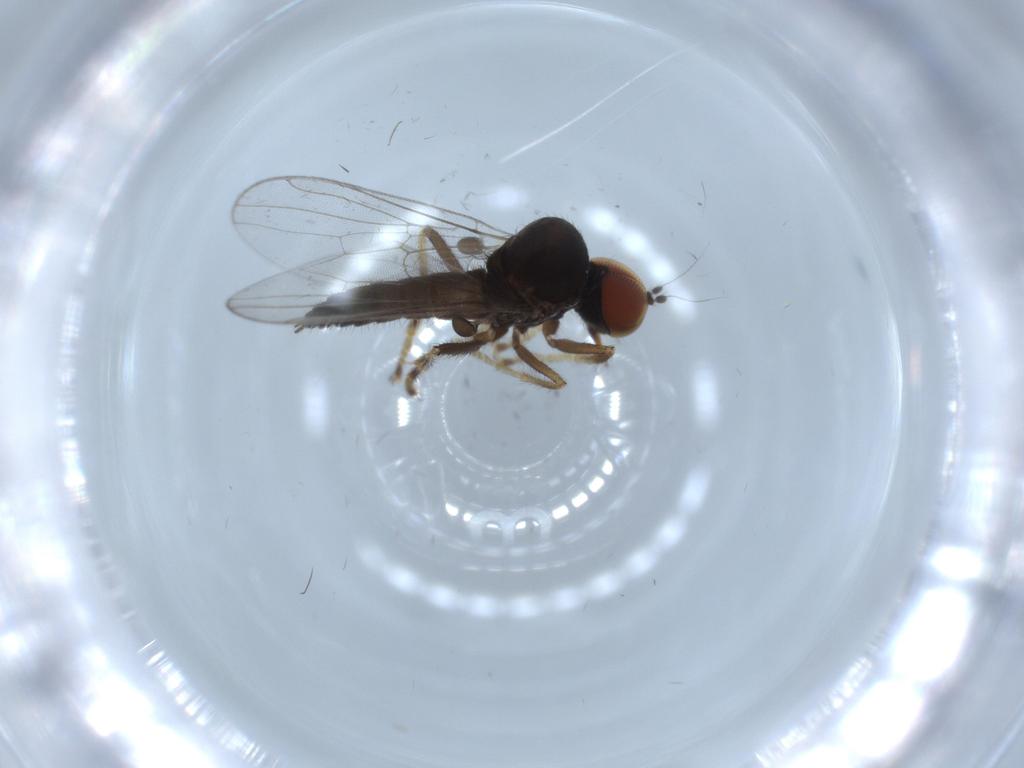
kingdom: Animalia
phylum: Arthropoda
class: Insecta
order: Diptera
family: Hybotidae
